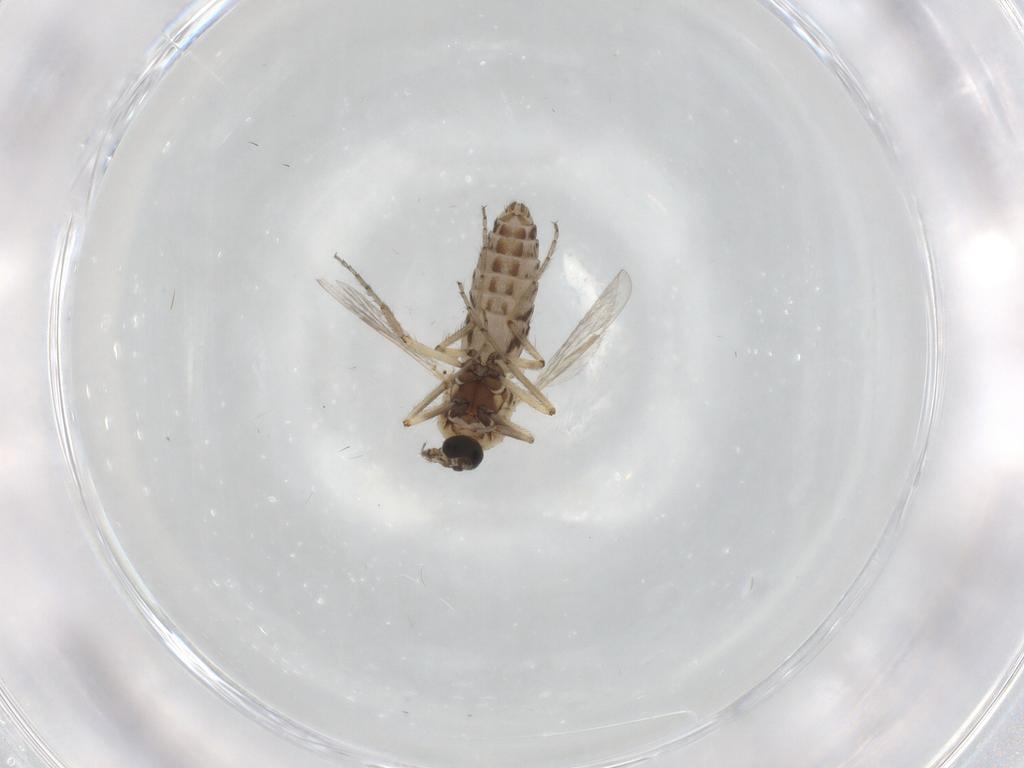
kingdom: Animalia
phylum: Arthropoda
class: Insecta
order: Diptera
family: Ceratopogonidae
